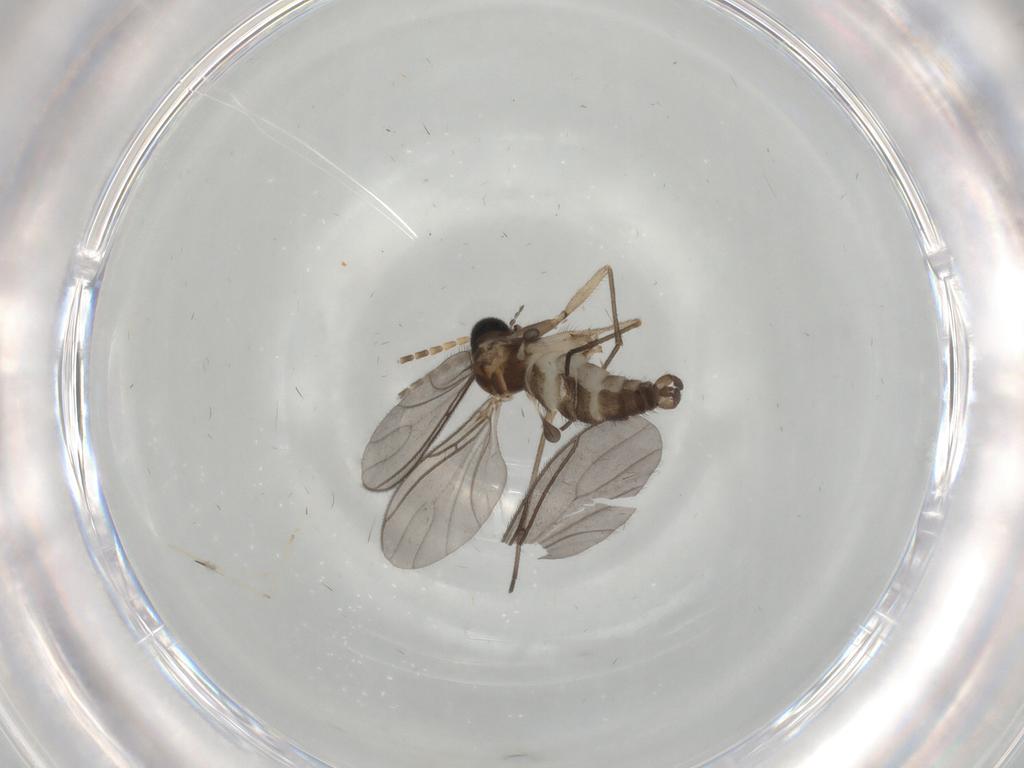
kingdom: Animalia
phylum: Arthropoda
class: Insecta
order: Diptera
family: Sciaridae
